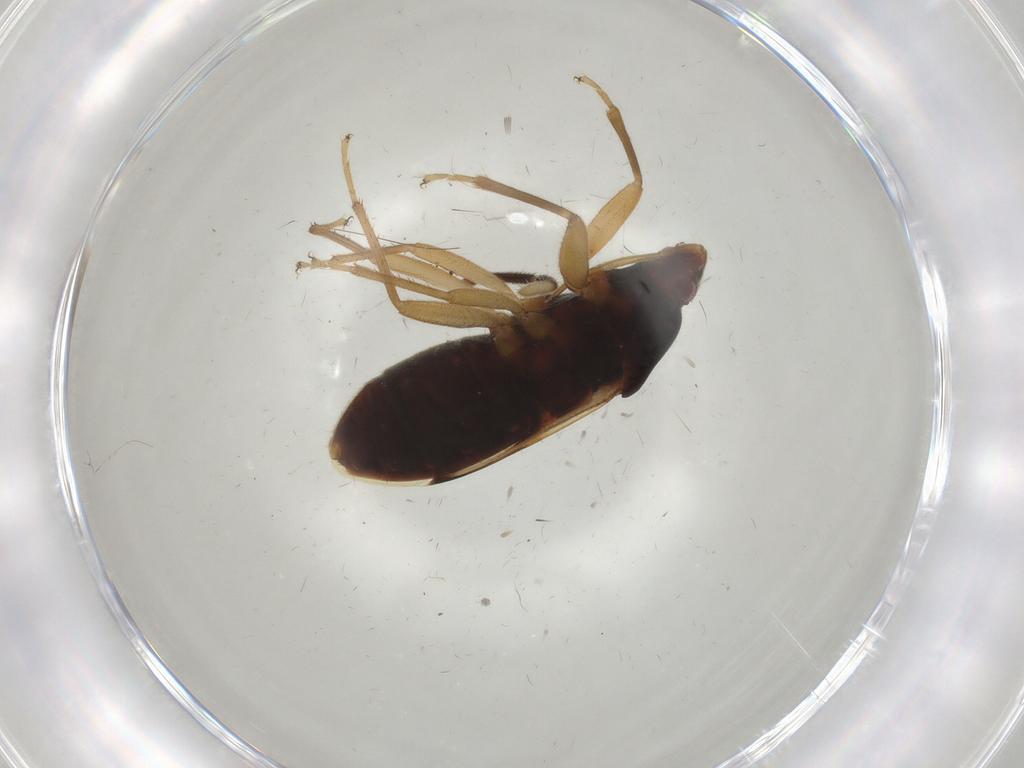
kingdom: Animalia
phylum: Arthropoda
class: Insecta
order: Hemiptera
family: Rhyparochromidae
